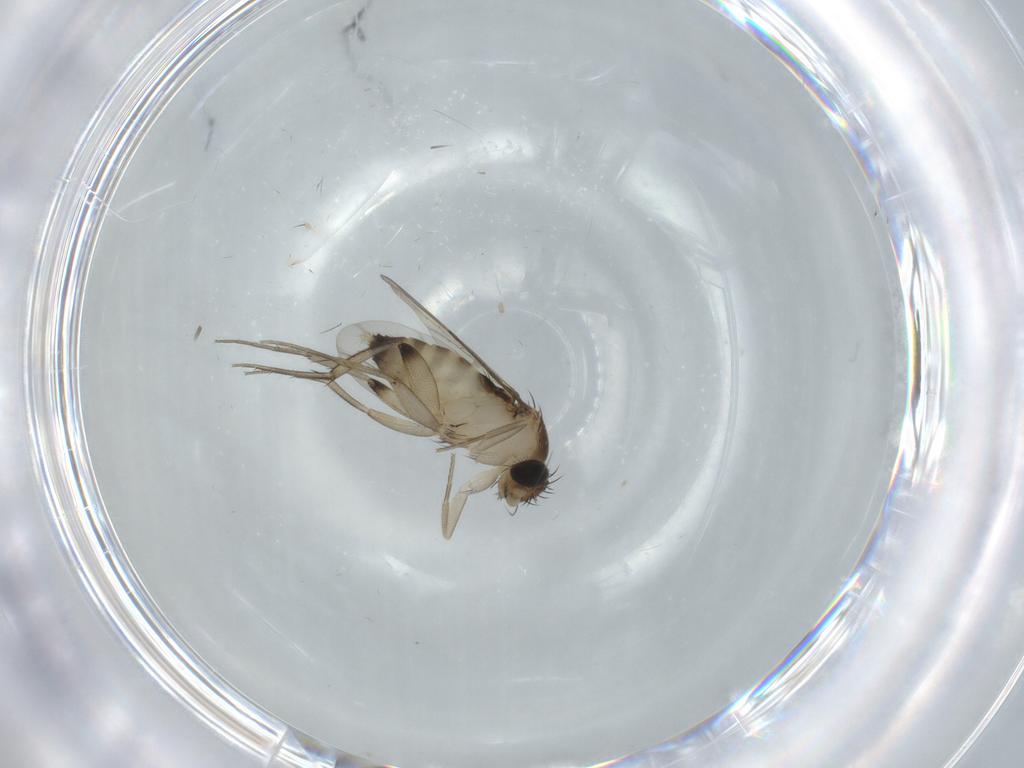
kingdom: Animalia
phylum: Arthropoda
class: Insecta
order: Diptera
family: Phoridae
